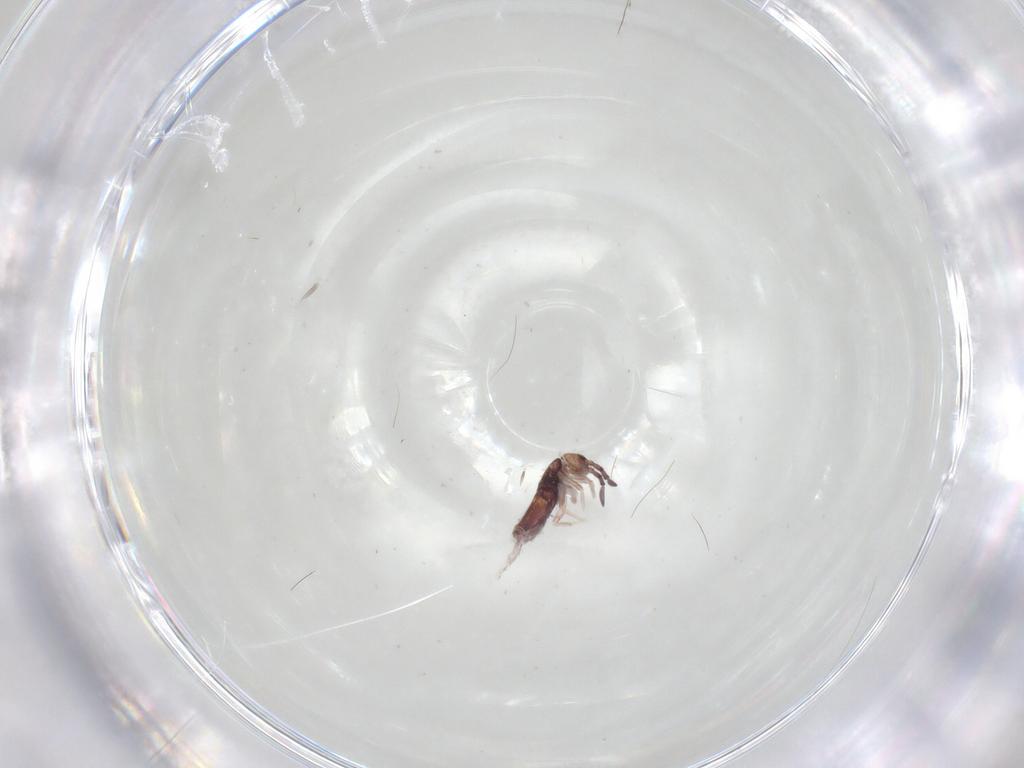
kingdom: Animalia
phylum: Arthropoda
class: Collembola
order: Entomobryomorpha
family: Entomobryidae
